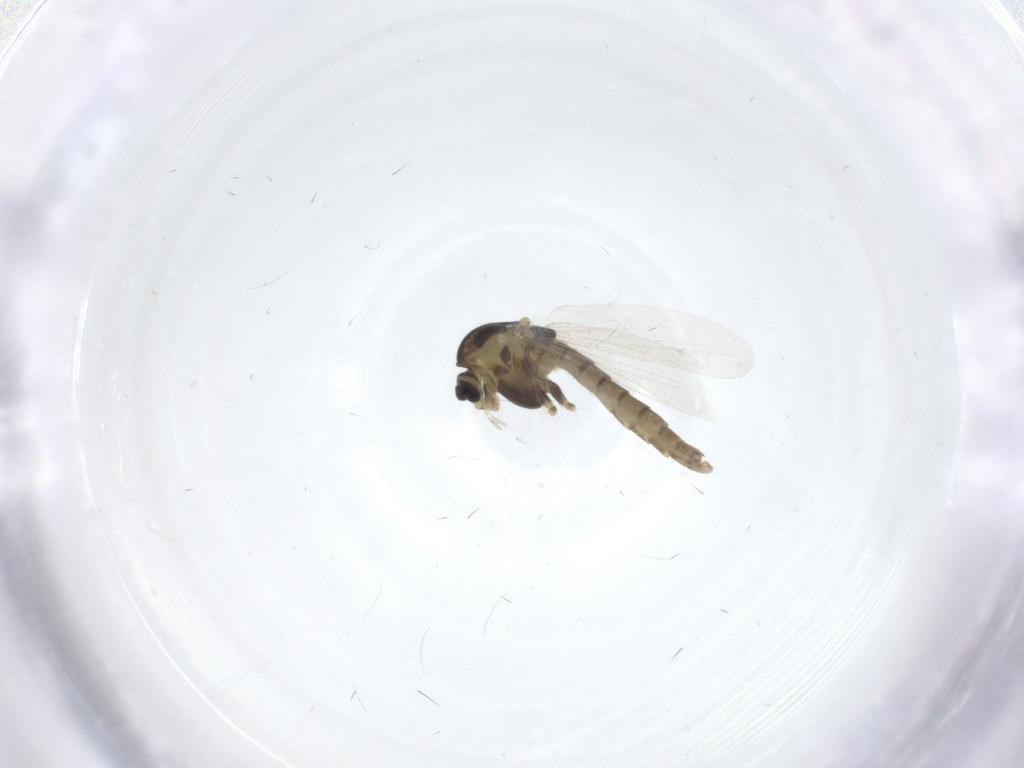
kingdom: Animalia
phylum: Arthropoda
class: Insecta
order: Diptera
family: Chironomidae
